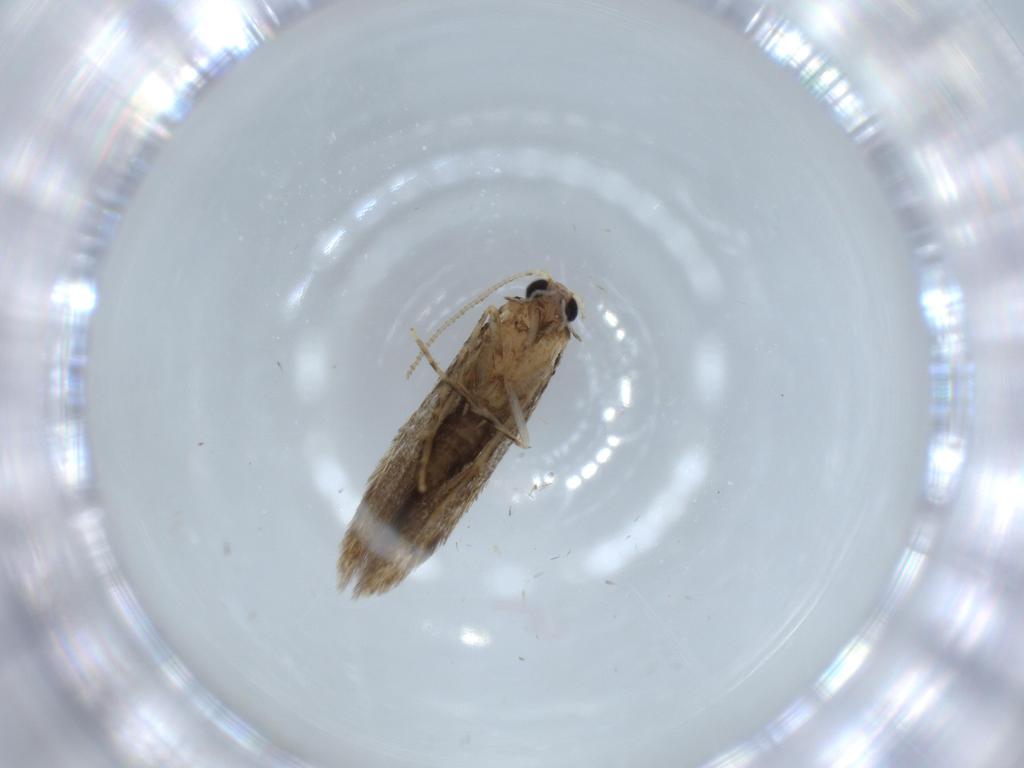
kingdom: Animalia
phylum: Arthropoda
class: Insecta
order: Lepidoptera
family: Tineidae
